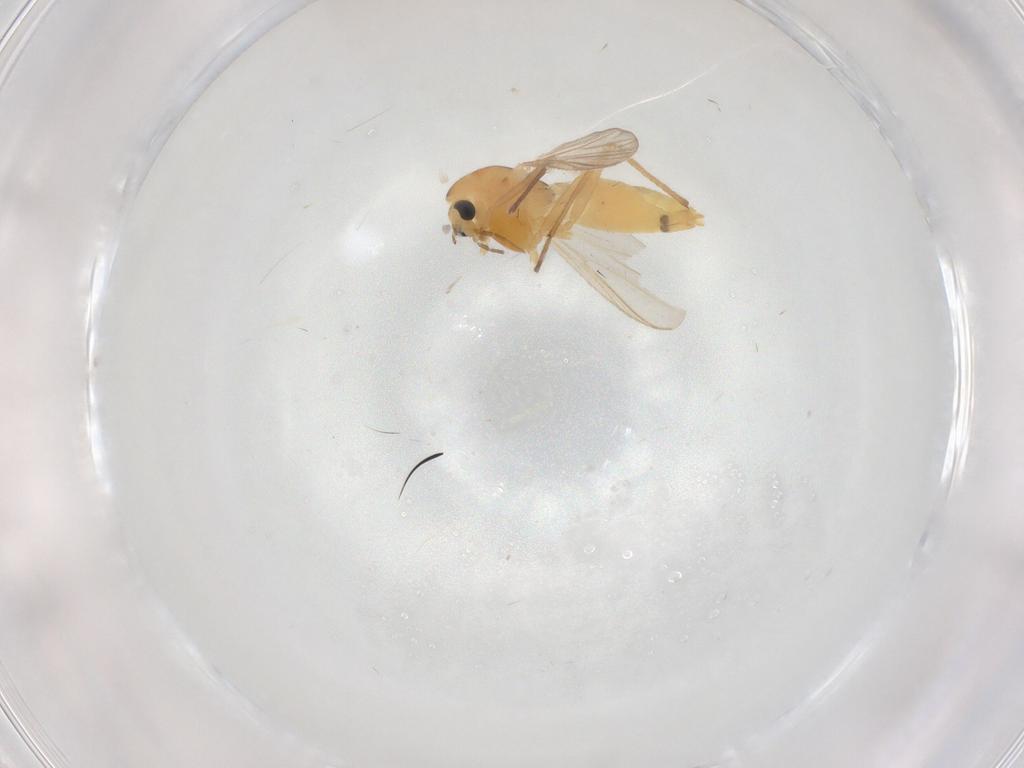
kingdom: Animalia
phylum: Arthropoda
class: Insecta
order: Diptera
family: Chironomidae
